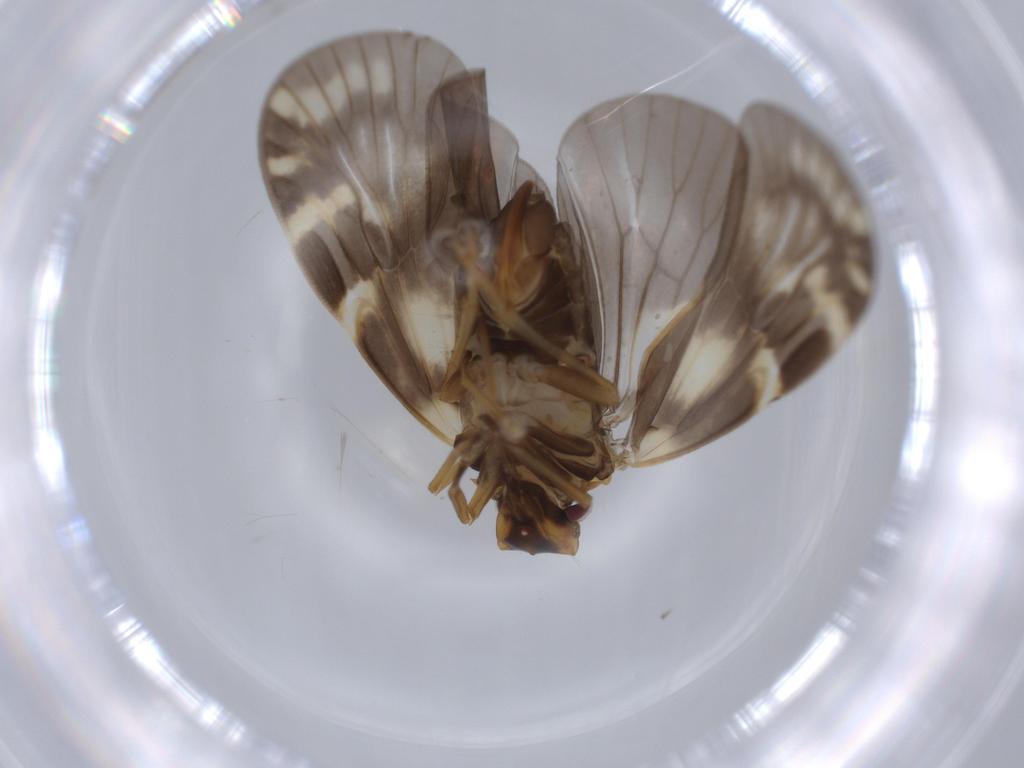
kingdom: Animalia
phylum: Arthropoda
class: Insecta
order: Hemiptera
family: Cixiidae
